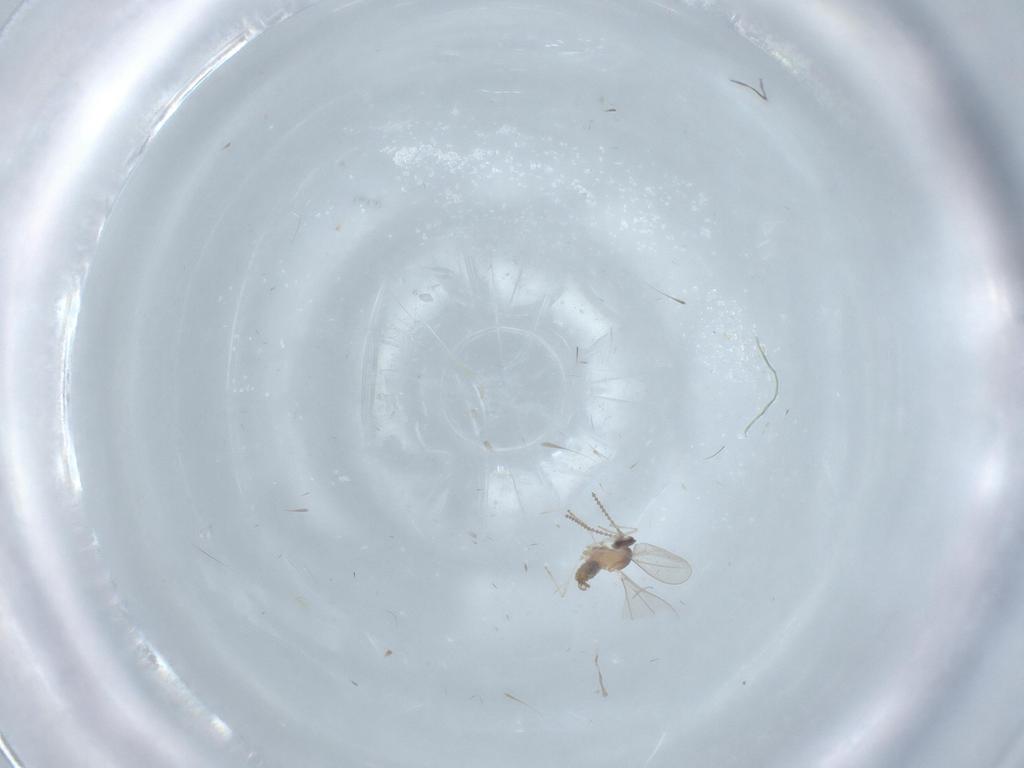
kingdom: Animalia
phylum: Arthropoda
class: Insecta
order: Diptera
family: Cecidomyiidae
